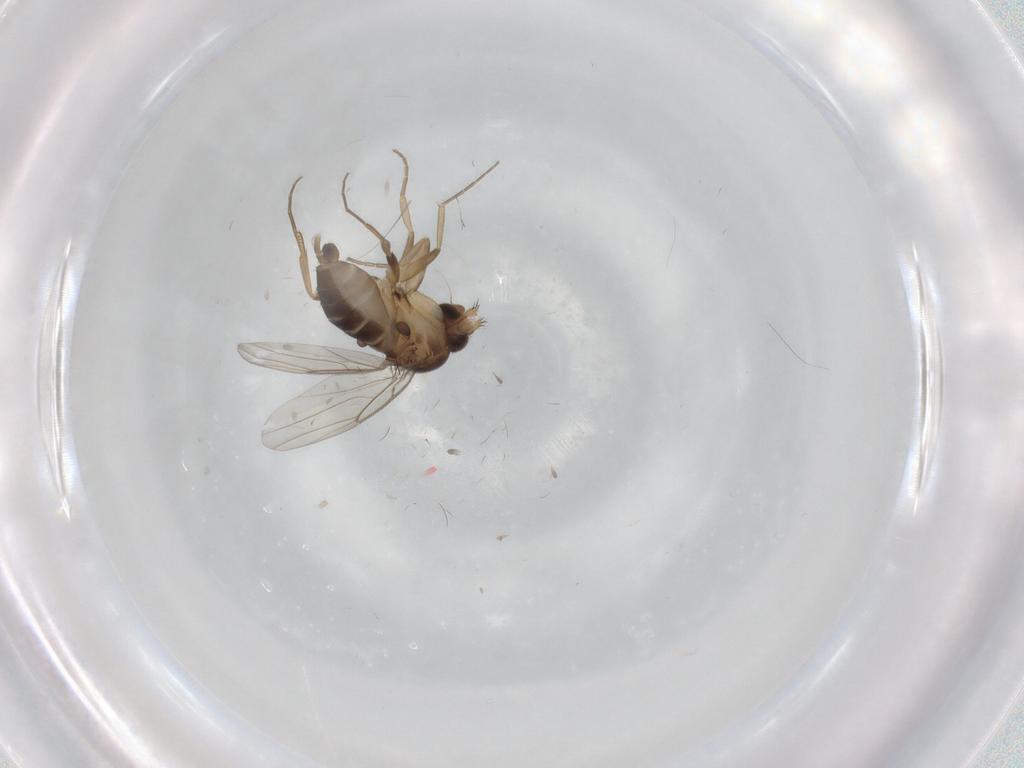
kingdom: Animalia
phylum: Arthropoda
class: Insecta
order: Diptera
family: Phoridae
